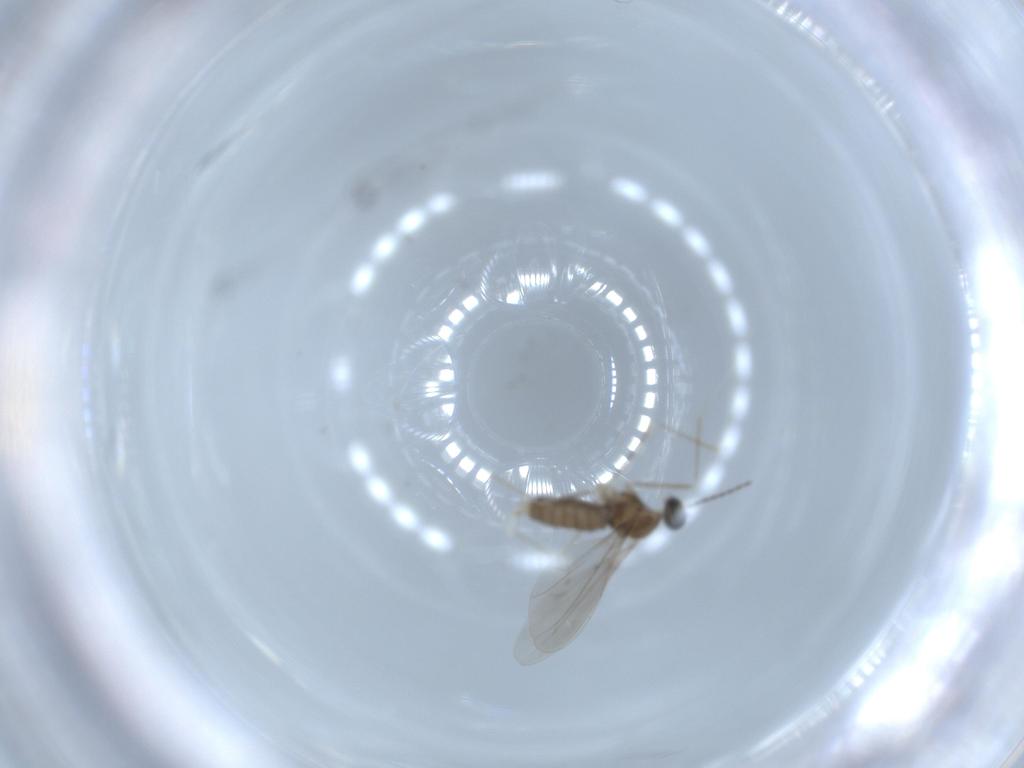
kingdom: Animalia
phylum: Arthropoda
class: Insecta
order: Diptera
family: Cecidomyiidae
